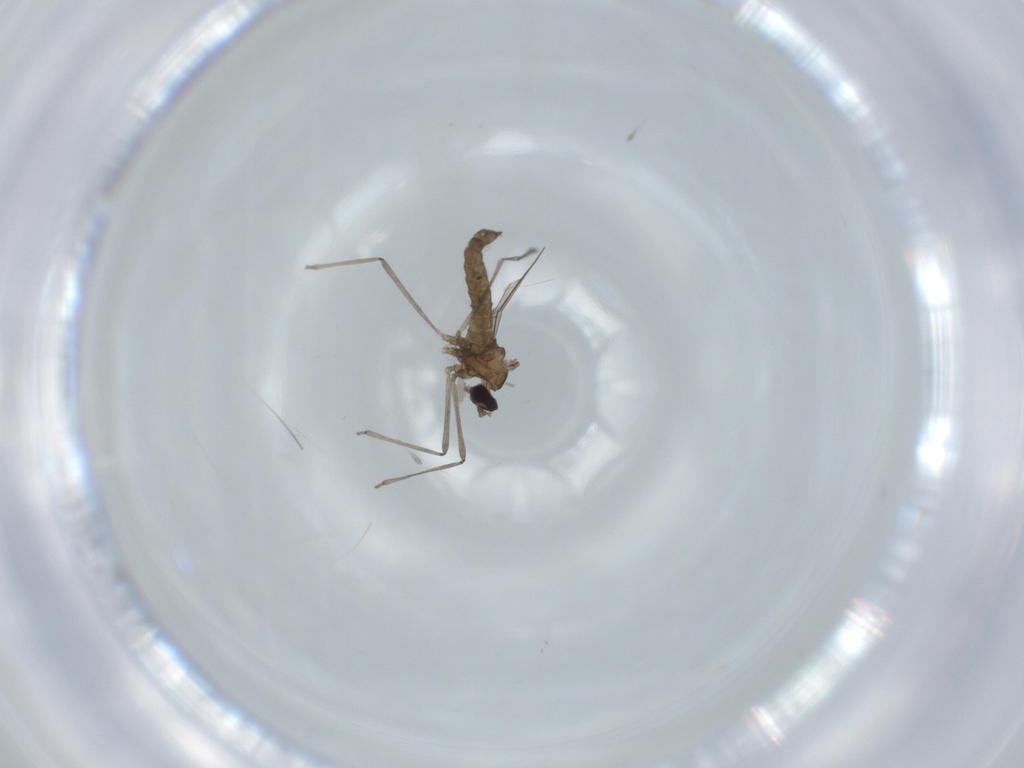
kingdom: Animalia
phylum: Arthropoda
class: Insecta
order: Diptera
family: Cecidomyiidae
